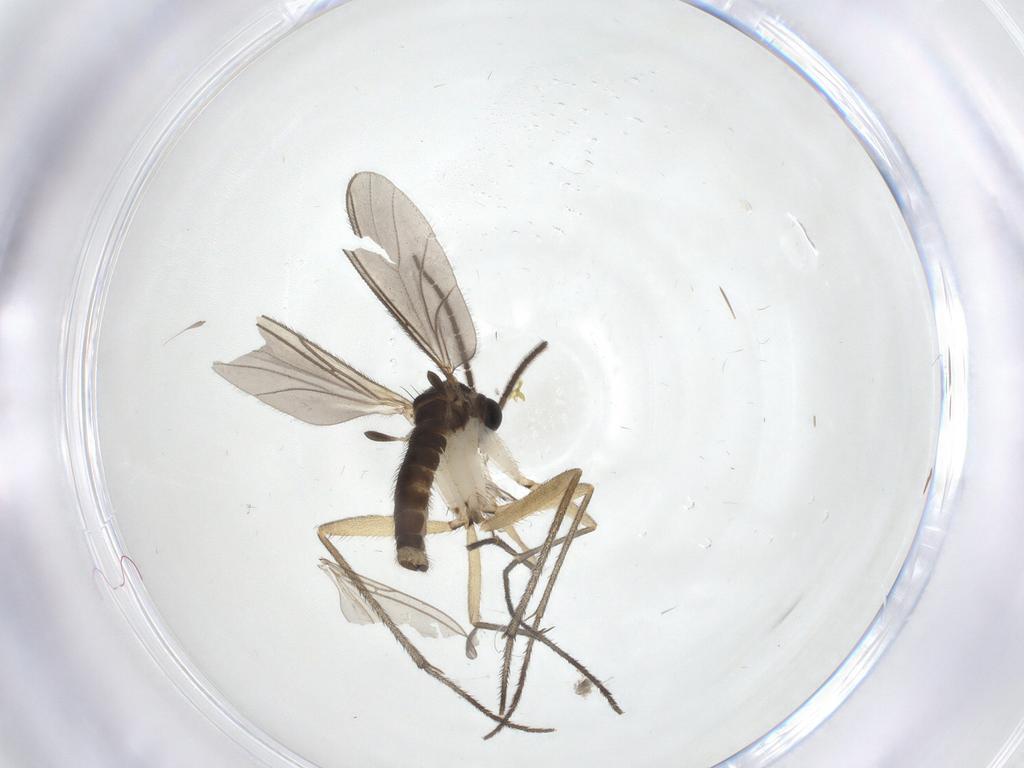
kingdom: Animalia
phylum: Arthropoda
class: Insecta
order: Diptera
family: Sciaridae
